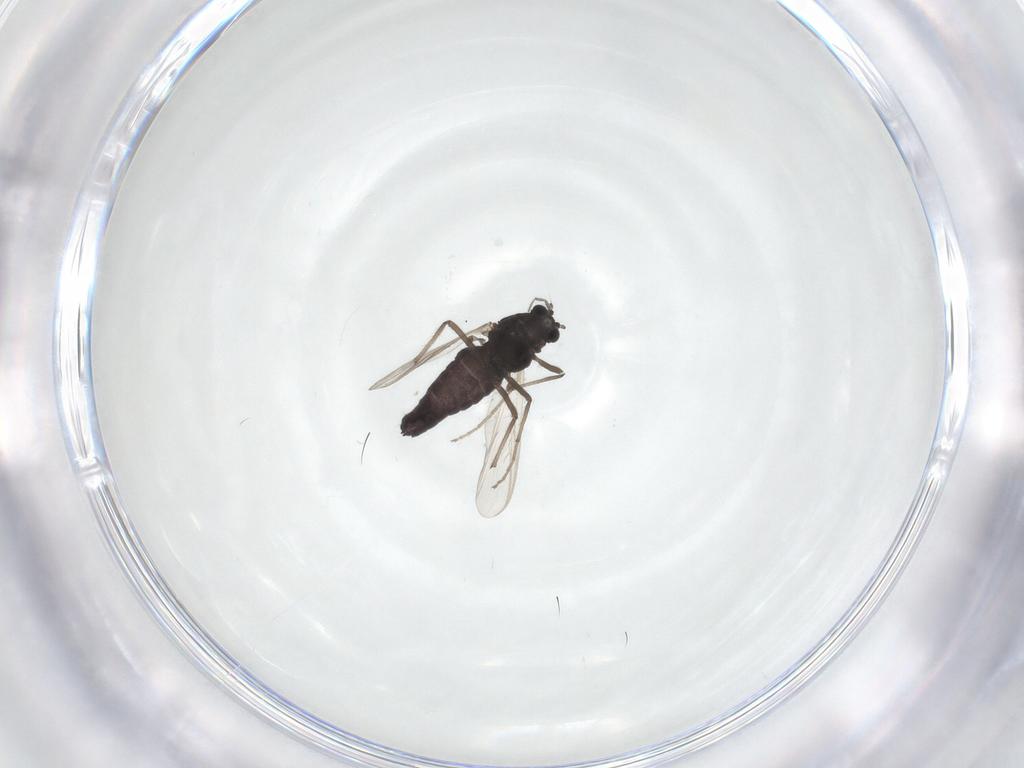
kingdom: Animalia
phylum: Arthropoda
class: Insecta
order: Diptera
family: Chironomidae
